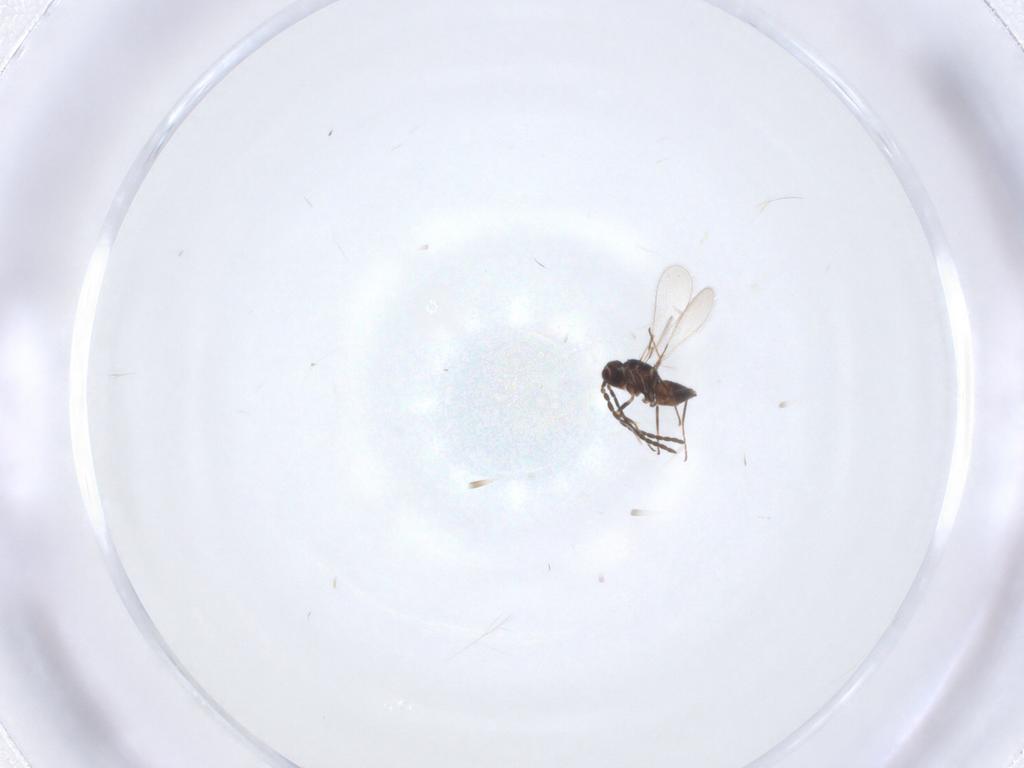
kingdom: Animalia
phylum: Arthropoda
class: Insecta
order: Hymenoptera
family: Mymaridae
